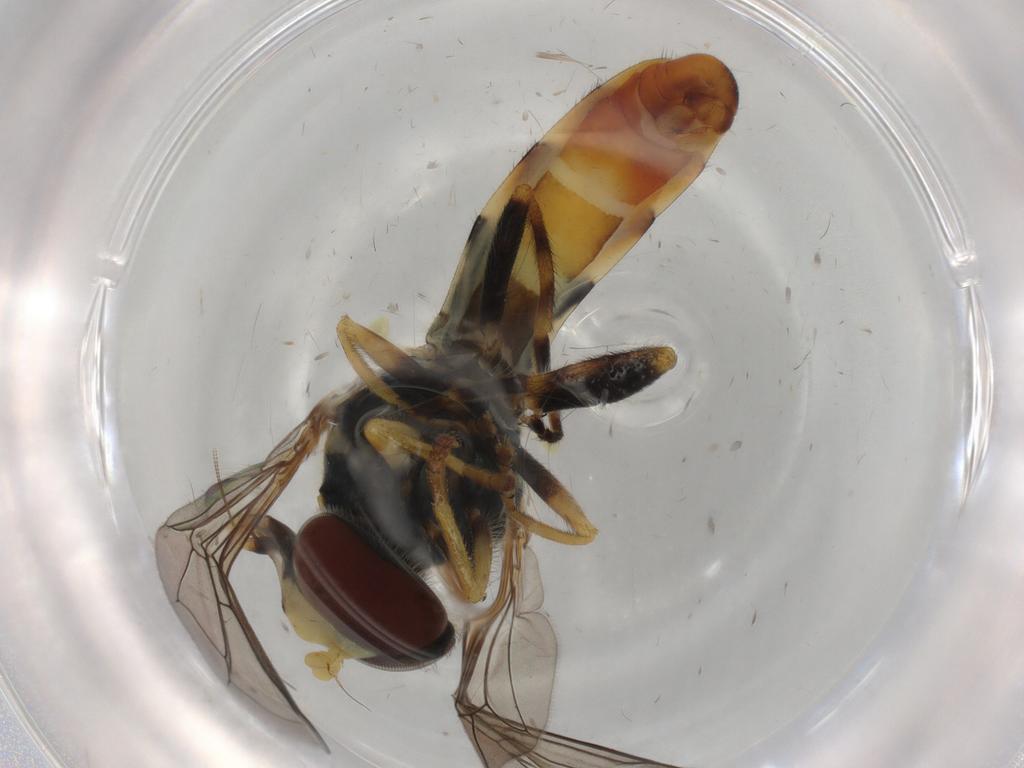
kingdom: Animalia
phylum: Arthropoda
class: Insecta
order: Diptera
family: Syrphidae
